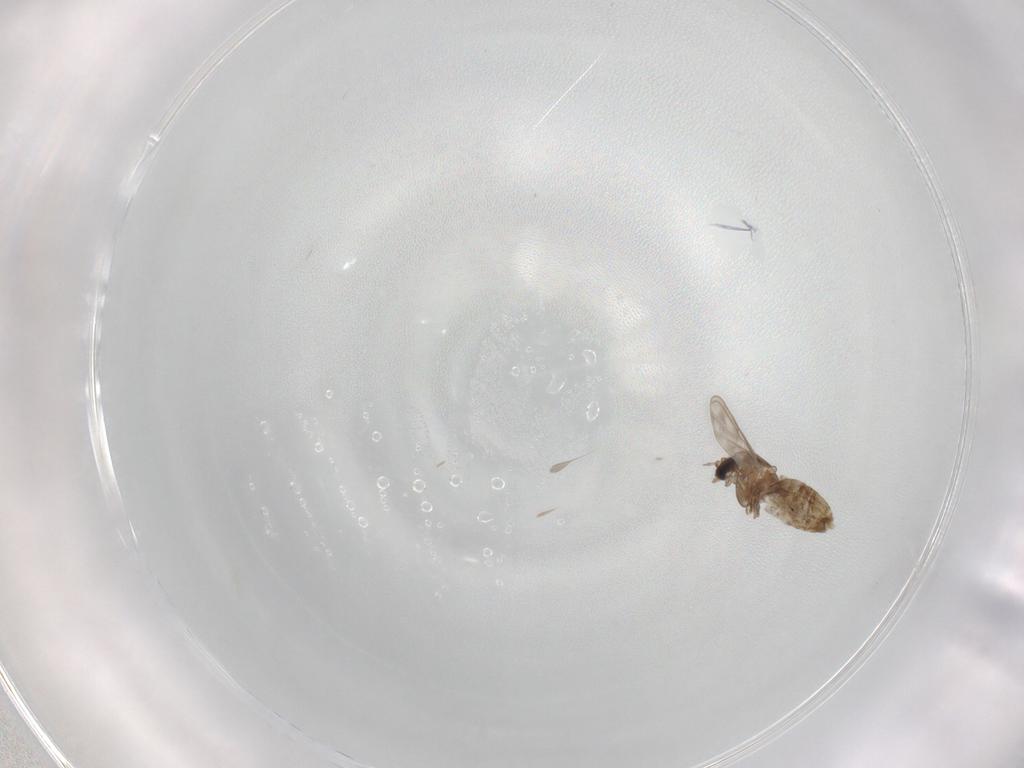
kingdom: Animalia
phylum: Arthropoda
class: Insecta
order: Diptera
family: Chironomidae
